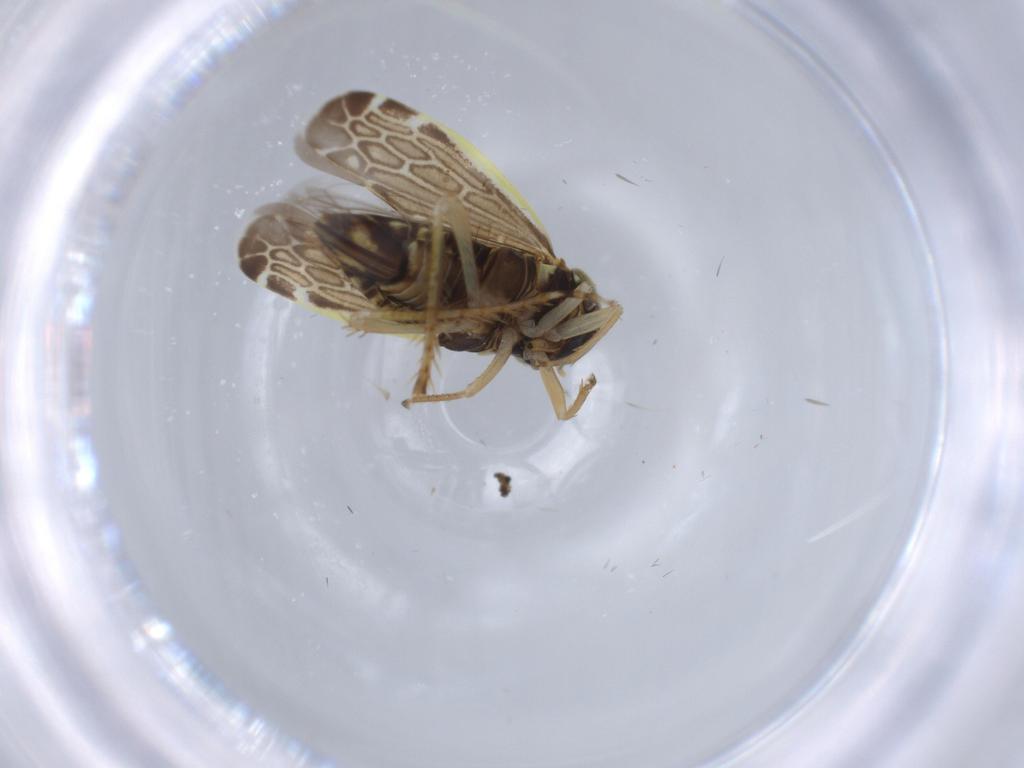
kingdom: Animalia
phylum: Arthropoda
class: Insecta
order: Hemiptera
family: Cicadellidae
